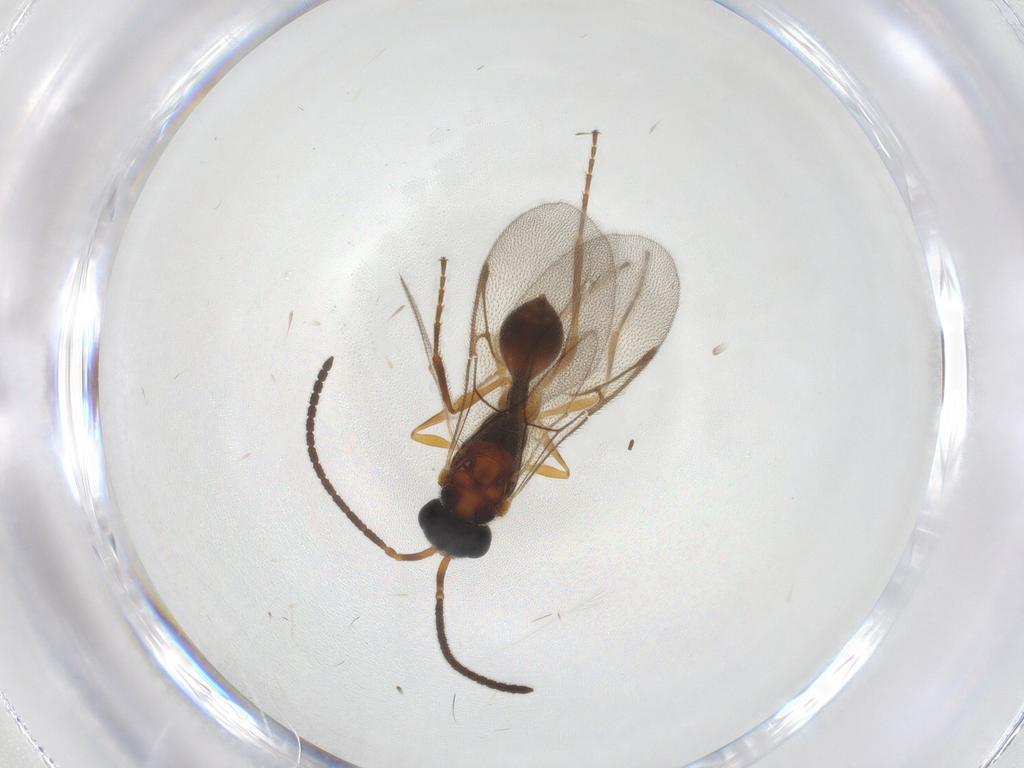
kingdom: Animalia
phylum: Arthropoda
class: Insecta
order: Hymenoptera
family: Diapriidae
